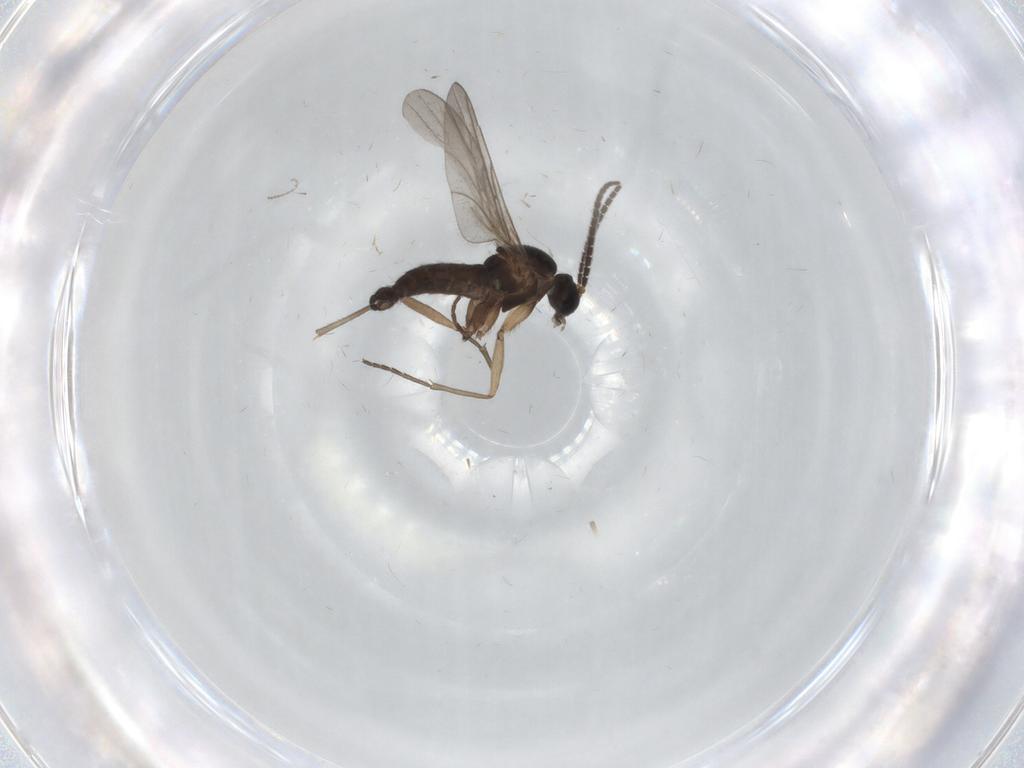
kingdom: Animalia
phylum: Arthropoda
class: Insecta
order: Diptera
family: Sciaridae
